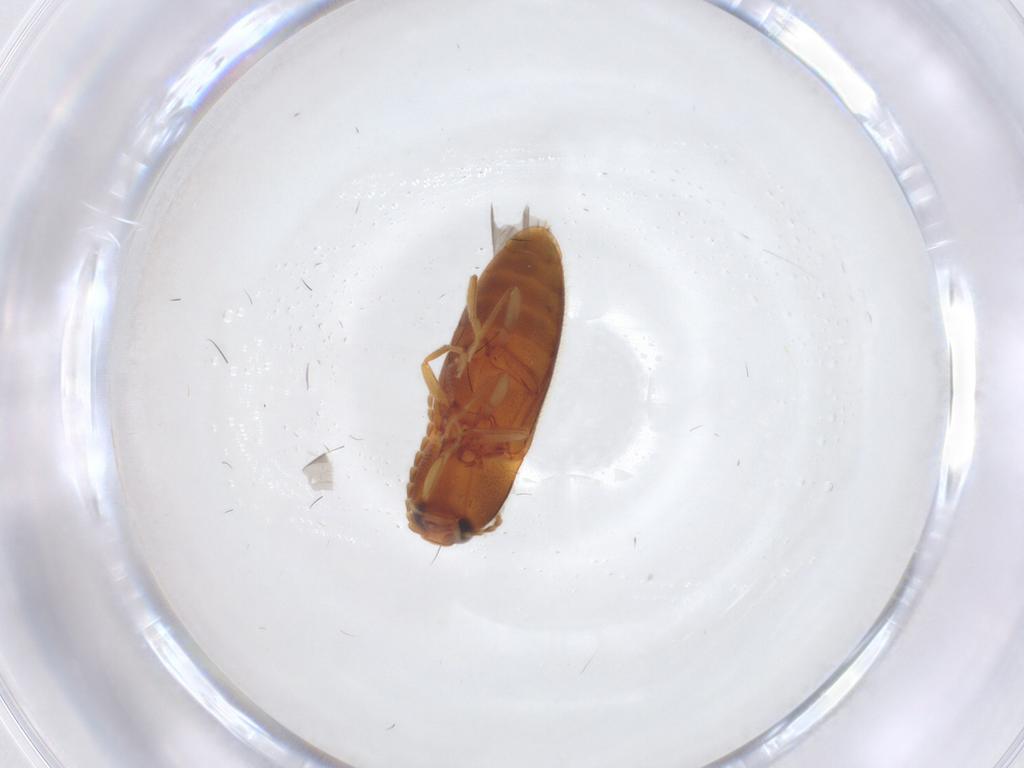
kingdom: Animalia
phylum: Arthropoda
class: Insecta
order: Coleoptera
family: Elateridae
